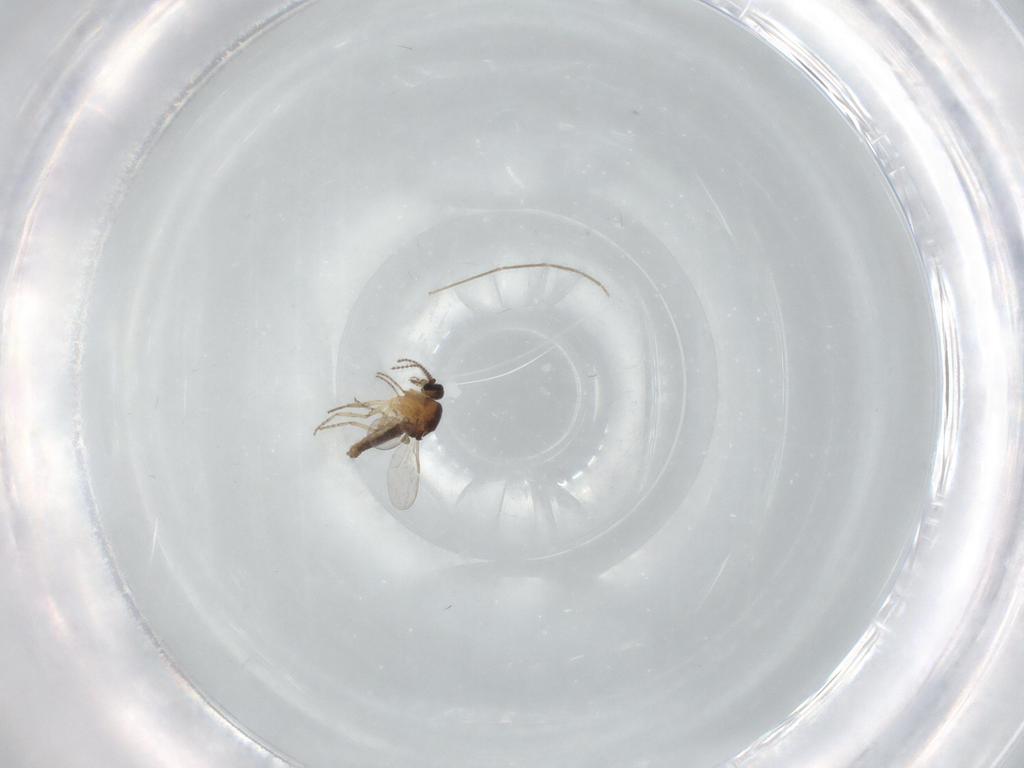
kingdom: Animalia
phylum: Arthropoda
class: Insecta
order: Diptera
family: Ceratopogonidae
